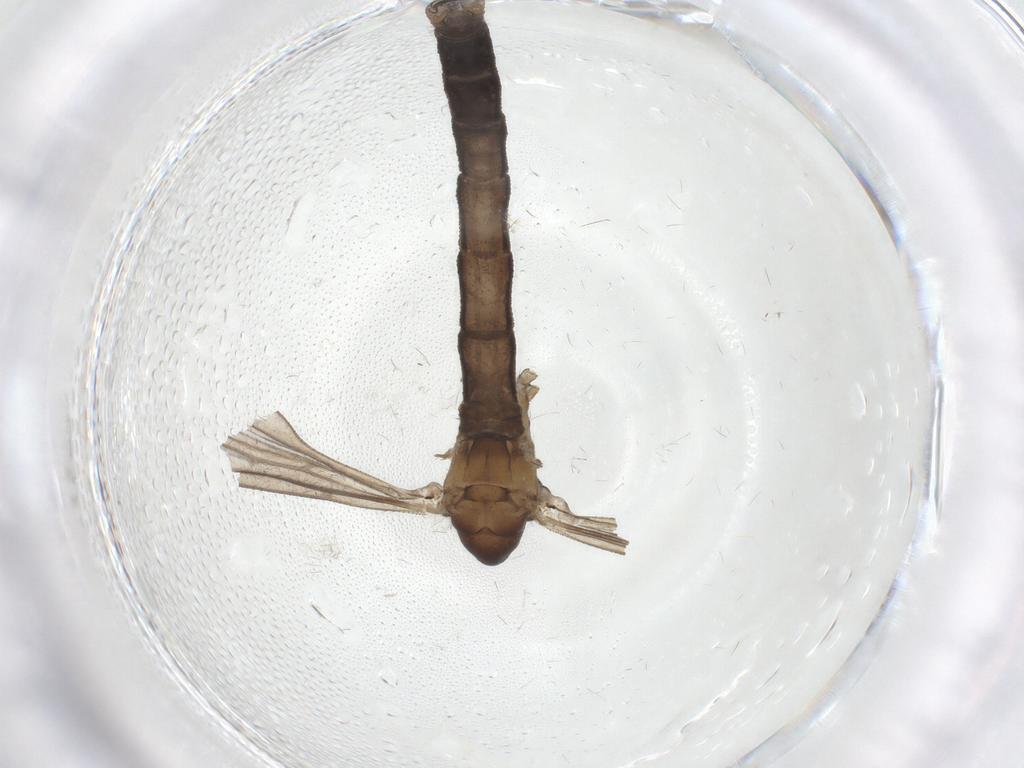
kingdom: Animalia
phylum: Arthropoda
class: Insecta
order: Diptera
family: Limoniidae
